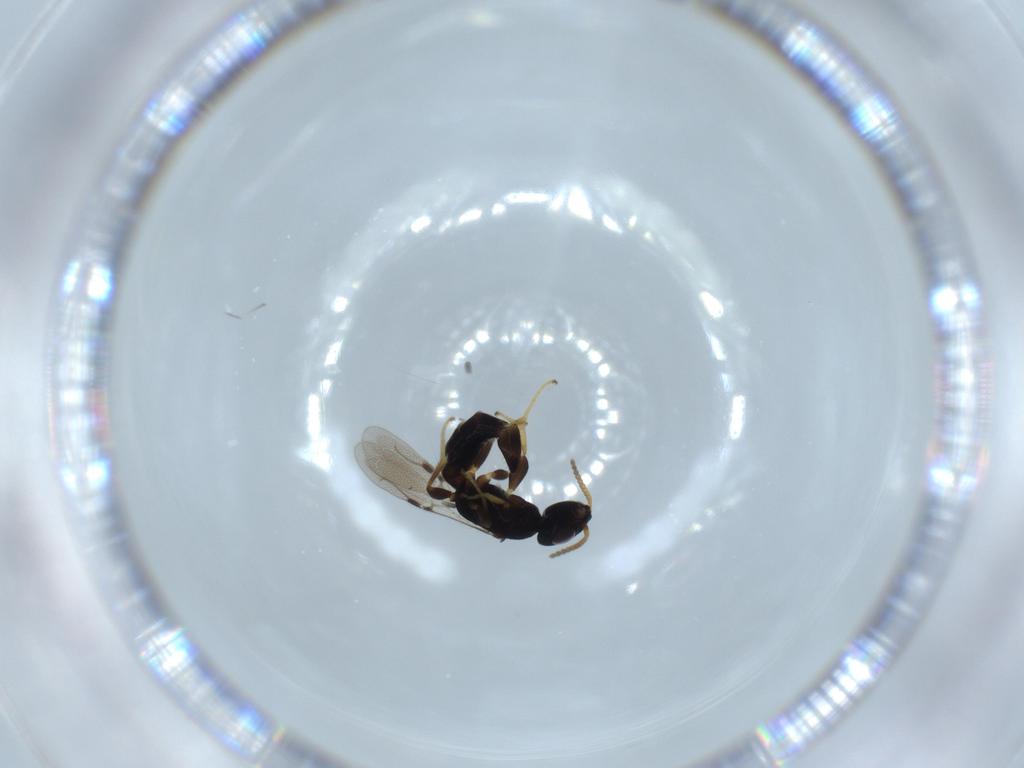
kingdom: Animalia
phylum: Arthropoda
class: Insecta
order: Hymenoptera
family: Bethylidae
